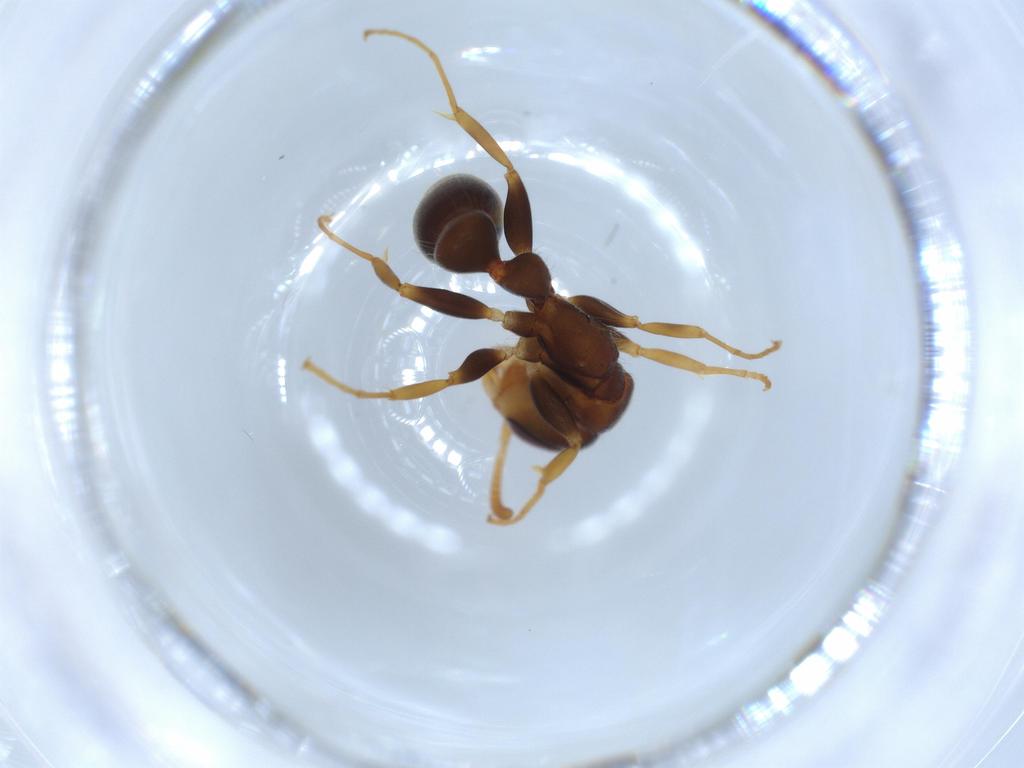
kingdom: Animalia
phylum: Arthropoda
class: Insecta
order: Hymenoptera
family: Formicidae
